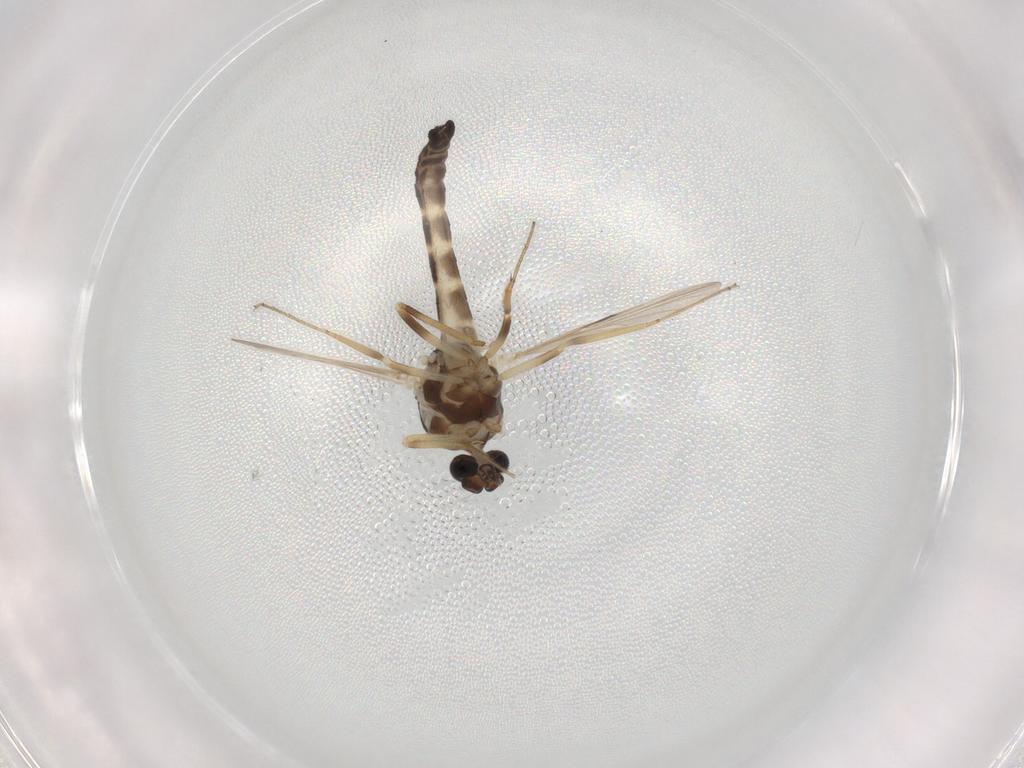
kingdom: Animalia
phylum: Arthropoda
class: Insecta
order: Diptera
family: Ceratopogonidae
